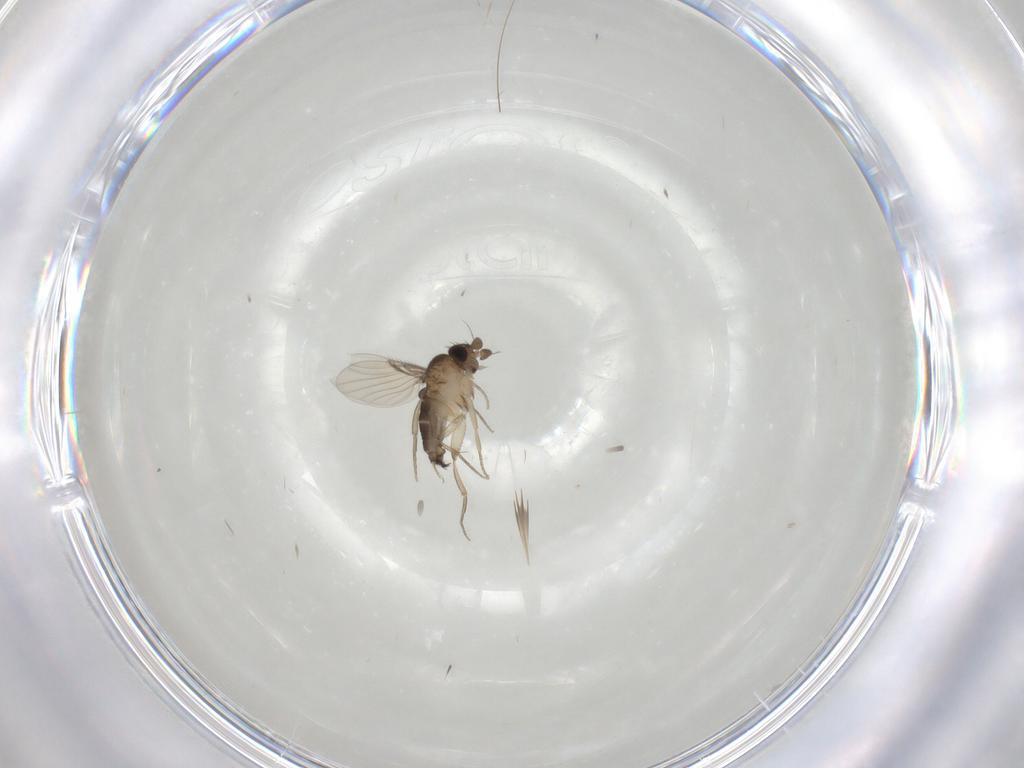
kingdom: Animalia
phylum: Arthropoda
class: Insecta
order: Diptera
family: Phoridae
